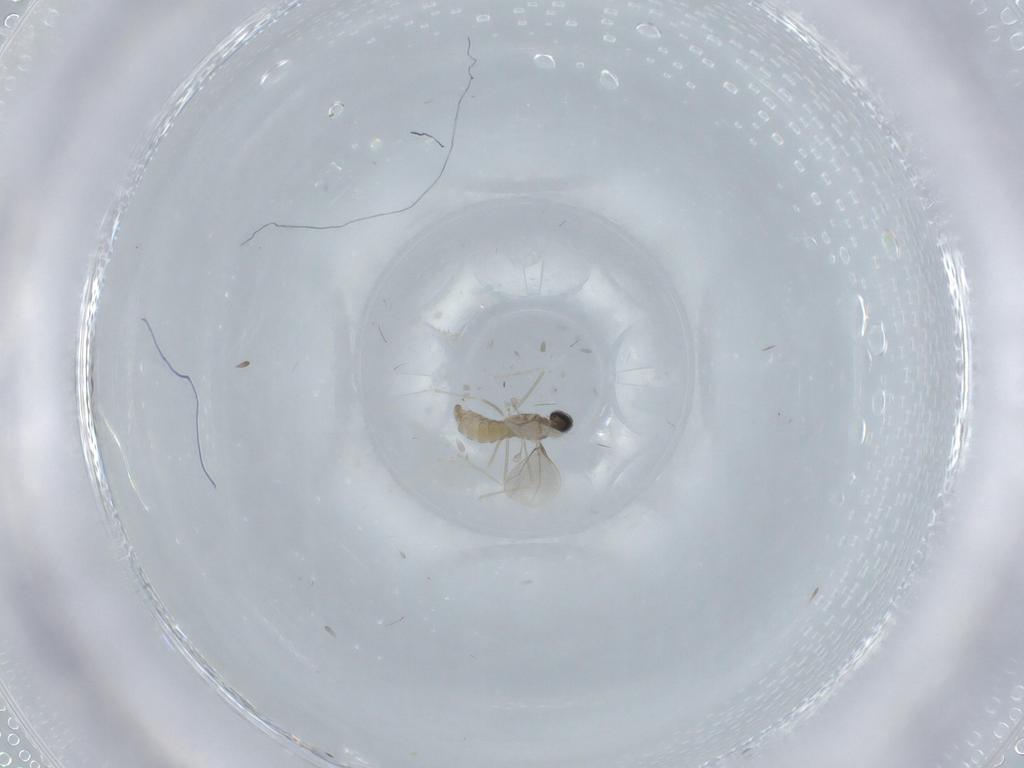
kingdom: Animalia
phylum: Arthropoda
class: Insecta
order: Diptera
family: Cecidomyiidae
